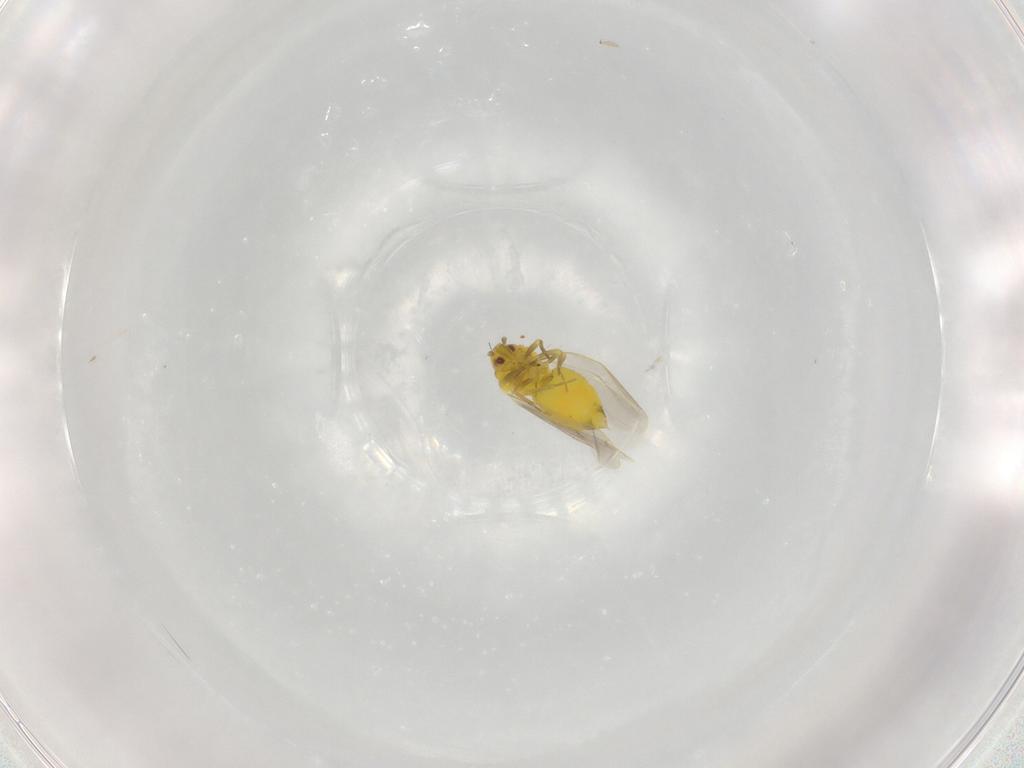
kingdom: Animalia
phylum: Arthropoda
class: Insecta
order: Hemiptera
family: Aleyrodidae
